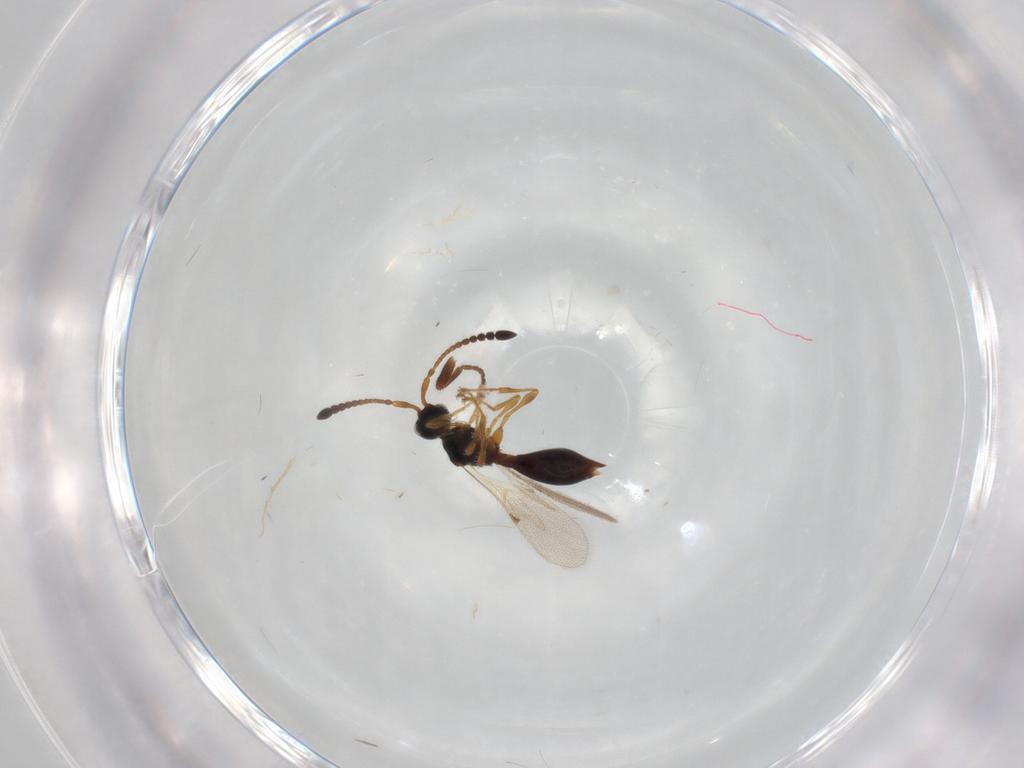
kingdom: Animalia
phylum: Arthropoda
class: Insecta
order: Hymenoptera
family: Diapriidae
